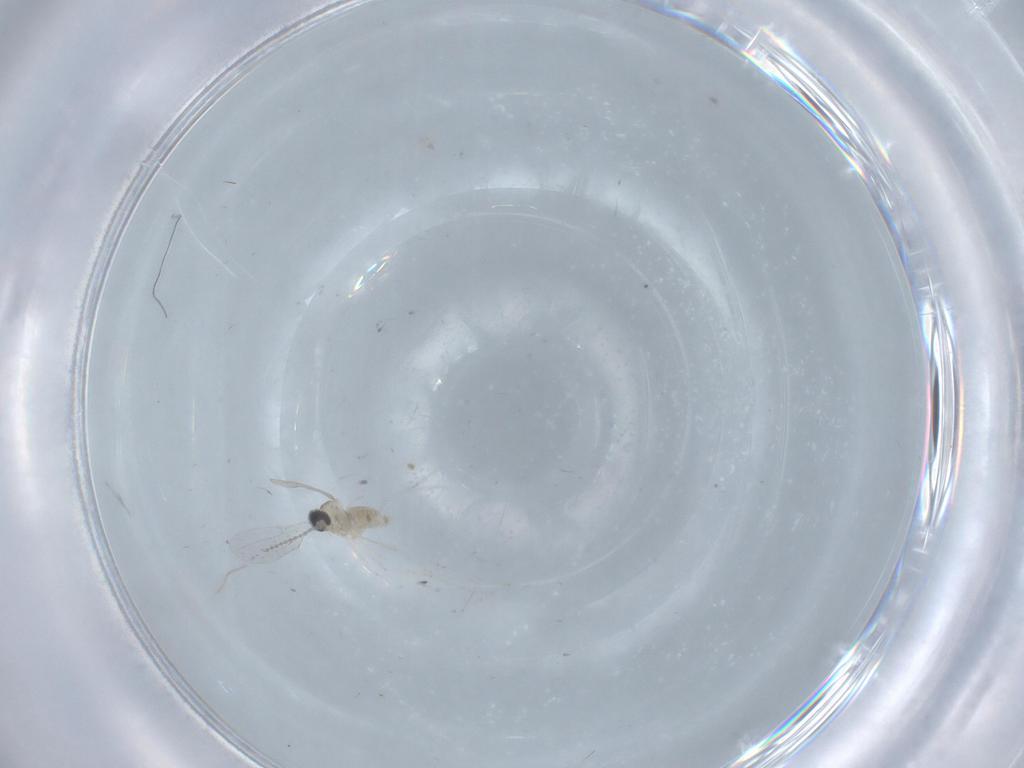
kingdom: Animalia
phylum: Arthropoda
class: Insecta
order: Diptera
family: Cecidomyiidae
